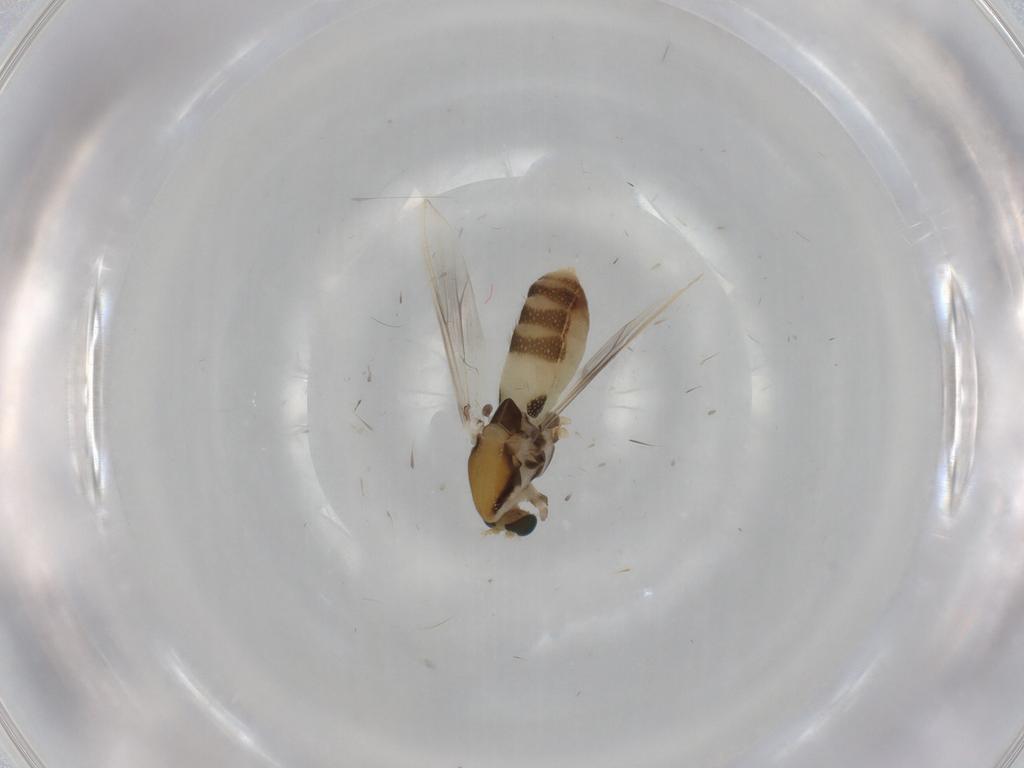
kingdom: Animalia
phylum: Arthropoda
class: Insecta
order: Diptera
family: Chironomidae
